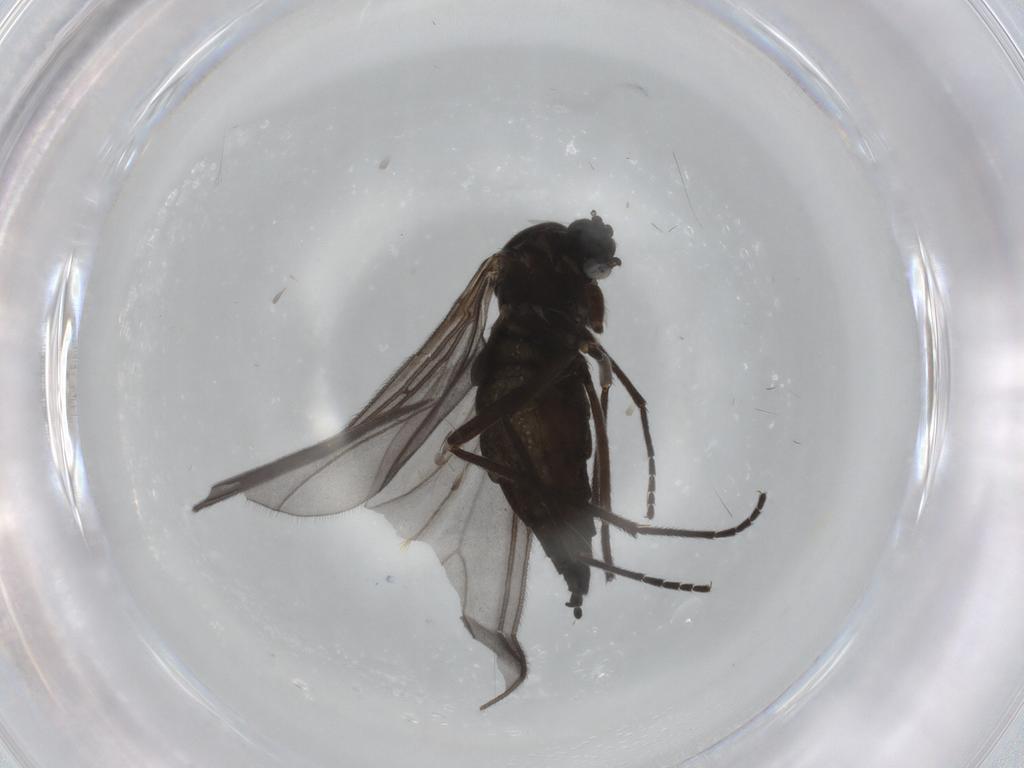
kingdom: Animalia
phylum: Arthropoda
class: Insecta
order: Diptera
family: Sciaridae
